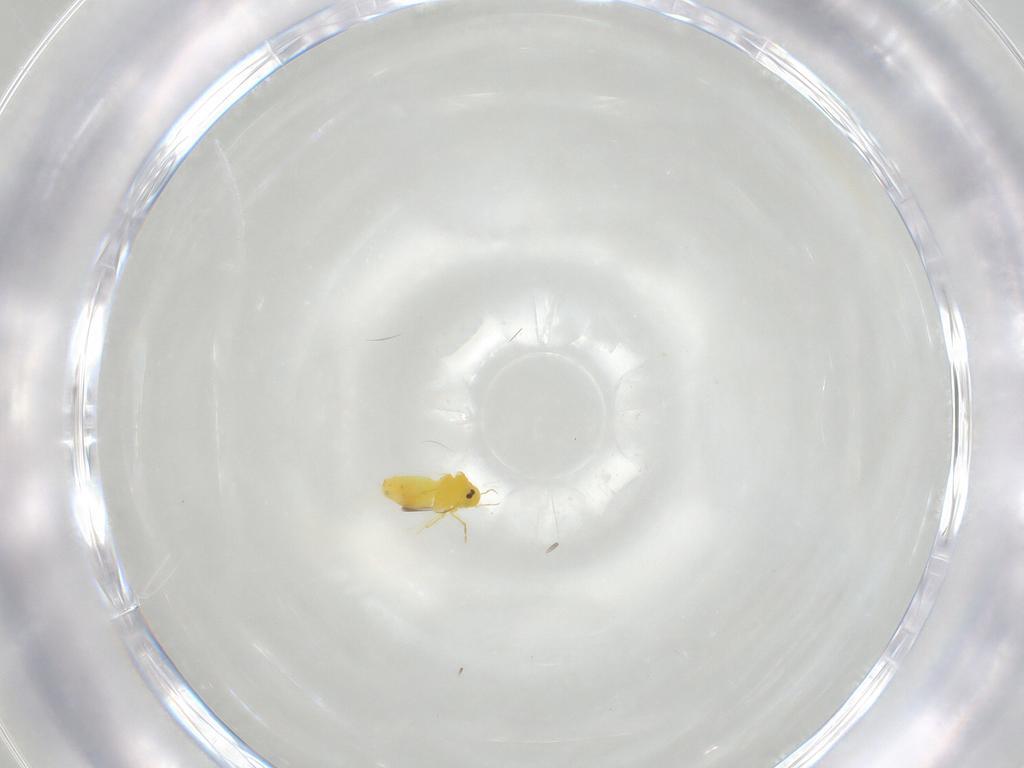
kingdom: Animalia
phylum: Arthropoda
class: Insecta
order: Hemiptera
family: Aleyrodidae
